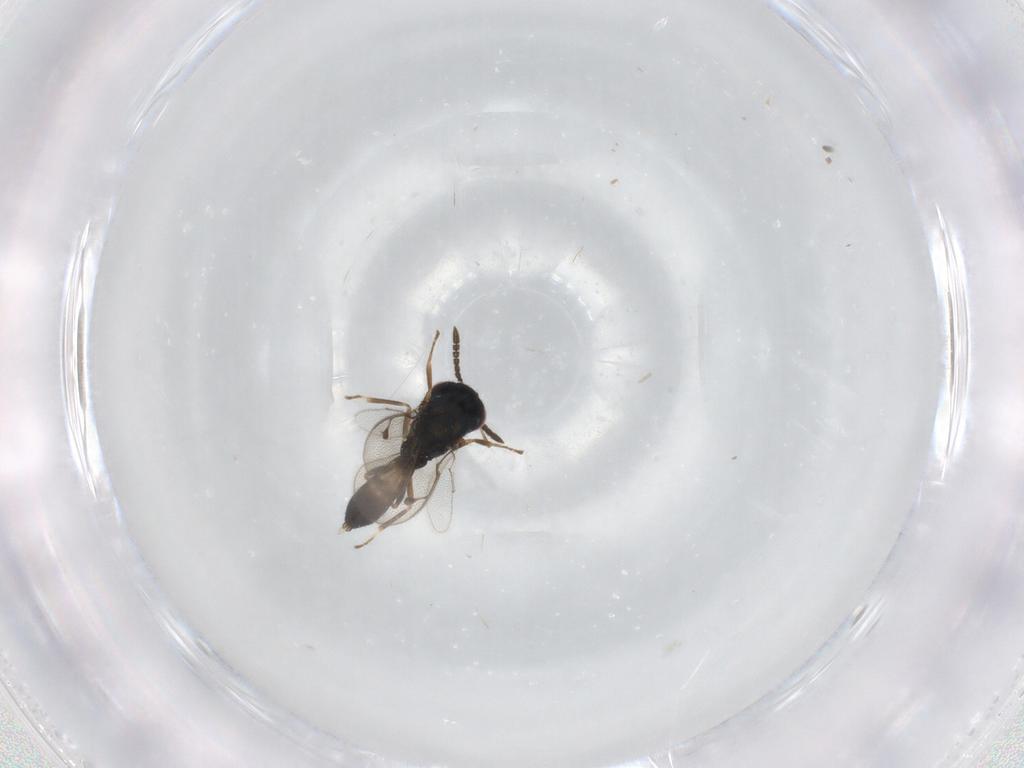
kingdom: Animalia
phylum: Arthropoda
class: Insecta
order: Hymenoptera
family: Pteromalidae
